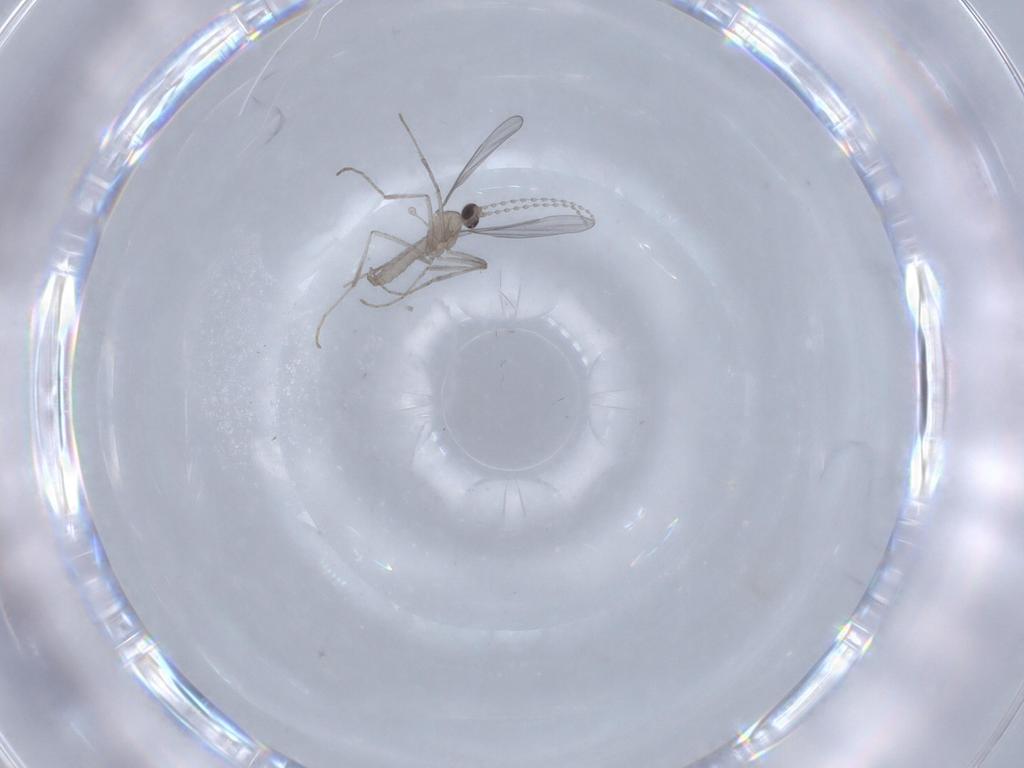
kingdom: Animalia
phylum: Arthropoda
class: Insecta
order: Diptera
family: Cecidomyiidae
